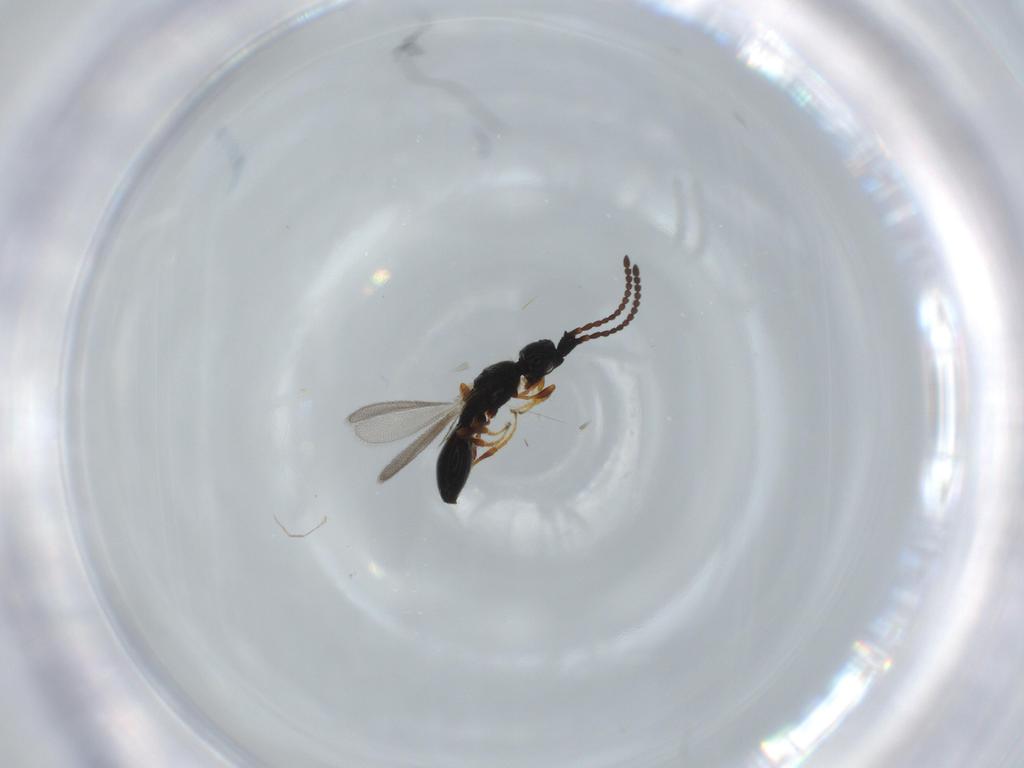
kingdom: Animalia
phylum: Arthropoda
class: Insecta
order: Hymenoptera
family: Diapriidae
